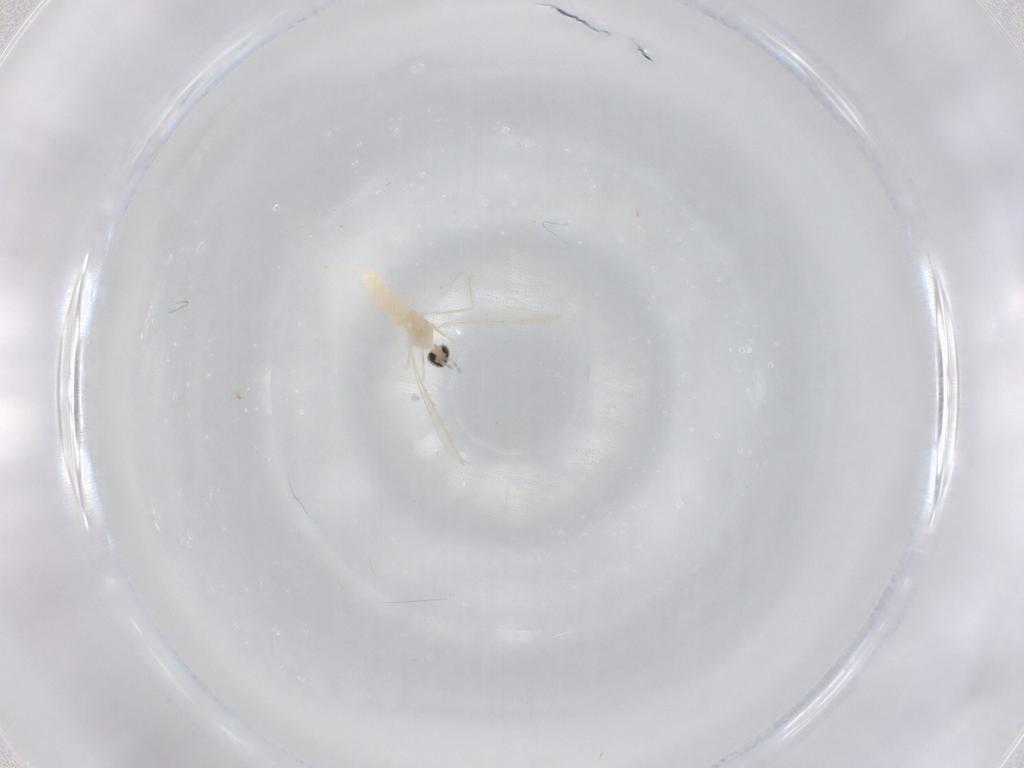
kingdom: Animalia
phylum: Arthropoda
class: Insecta
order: Diptera
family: Cecidomyiidae
